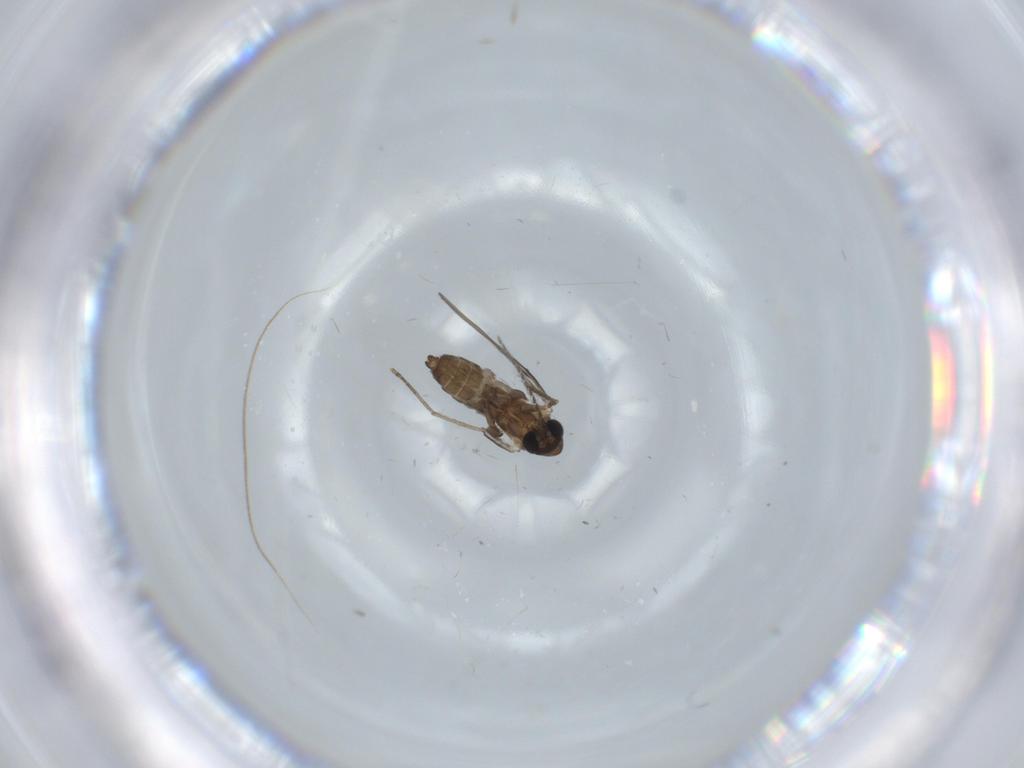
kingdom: Animalia
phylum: Arthropoda
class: Insecta
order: Diptera
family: Psychodidae
